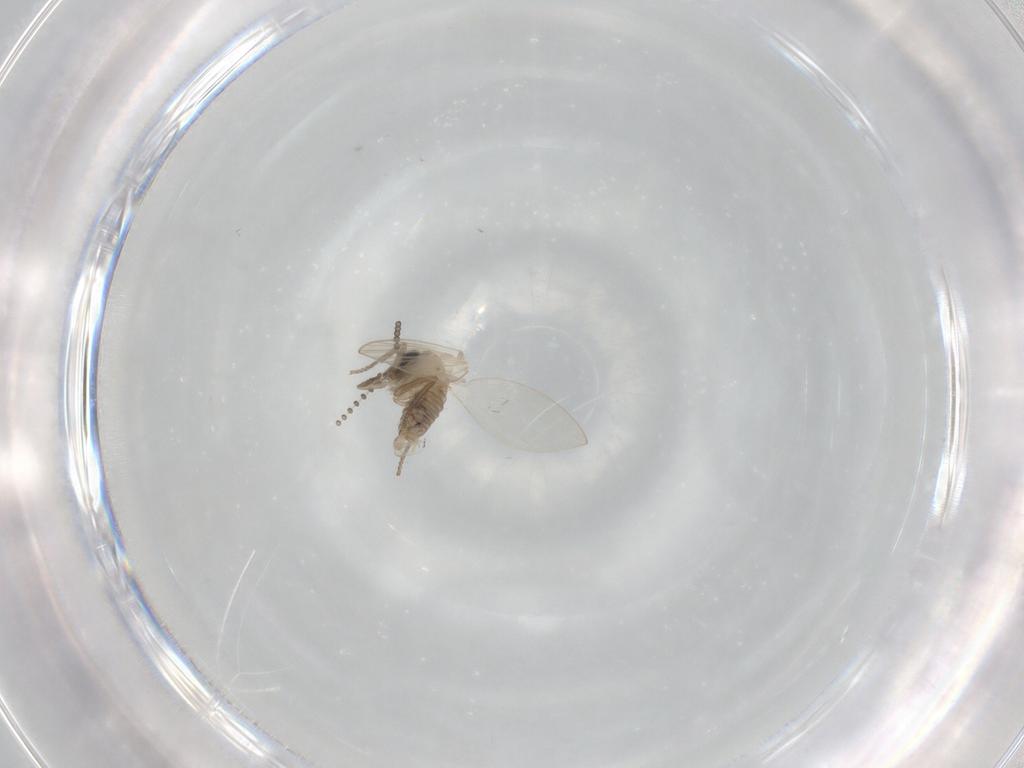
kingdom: Animalia
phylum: Arthropoda
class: Insecta
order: Diptera
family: Psychodidae
